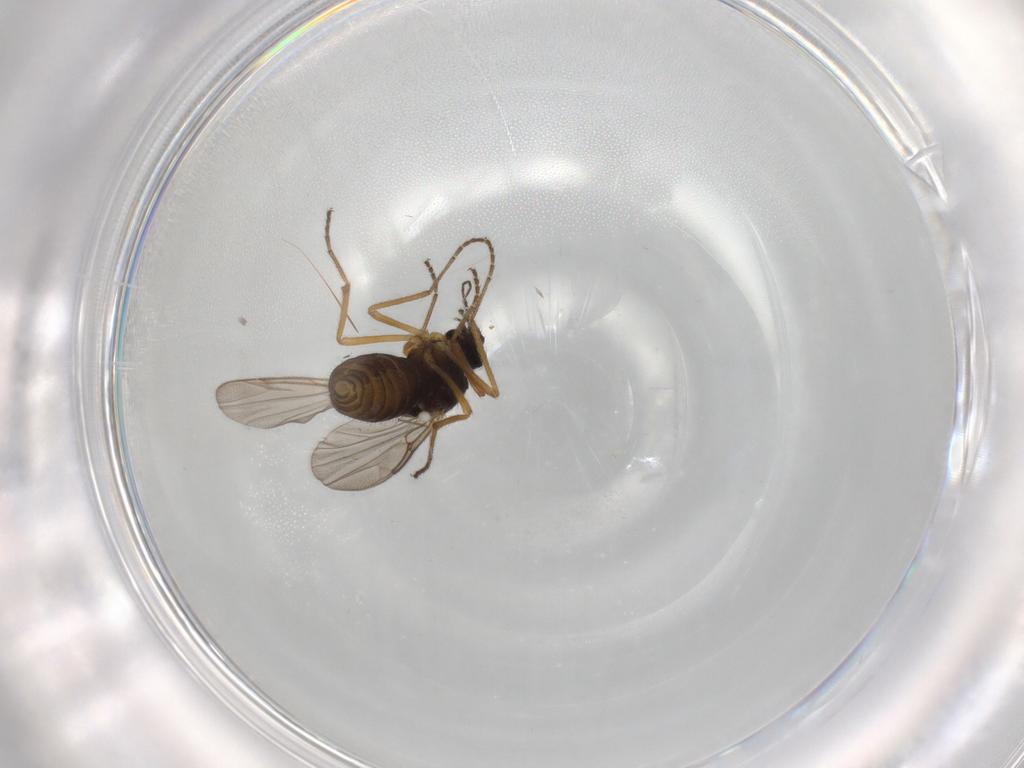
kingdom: Animalia
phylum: Arthropoda
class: Insecta
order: Diptera
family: Ceratopogonidae
